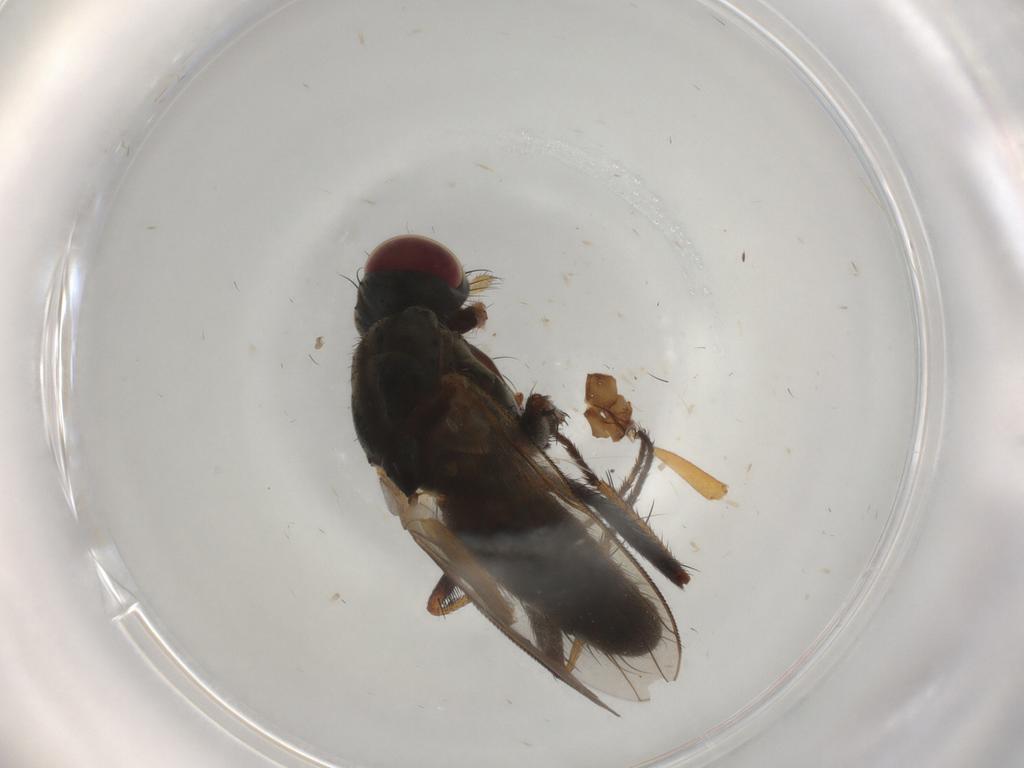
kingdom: Animalia
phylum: Arthropoda
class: Insecta
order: Diptera
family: Muscidae
